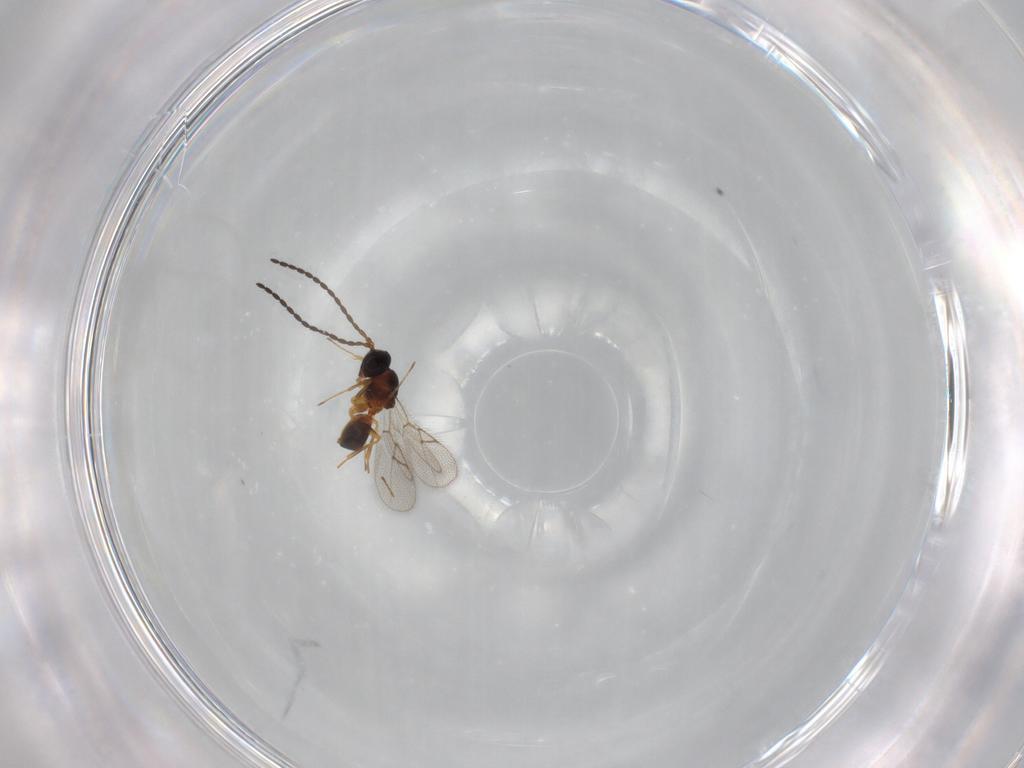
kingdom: Animalia
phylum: Arthropoda
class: Insecta
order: Hymenoptera
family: Figitidae
